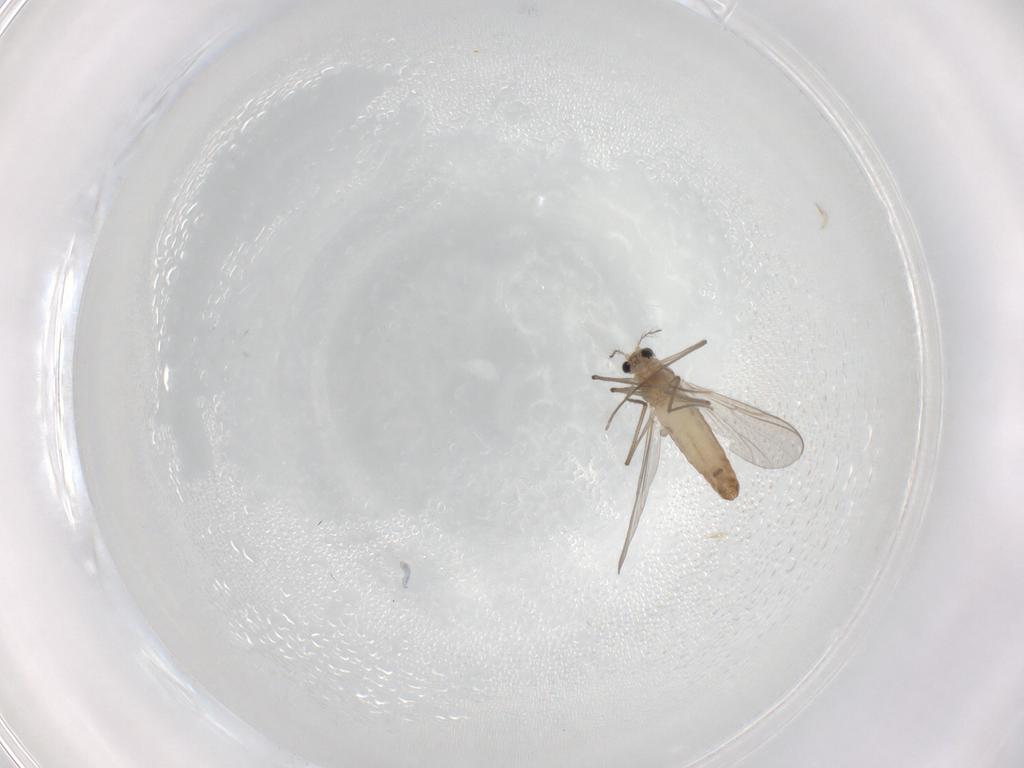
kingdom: Animalia
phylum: Arthropoda
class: Insecta
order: Diptera
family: Chironomidae
